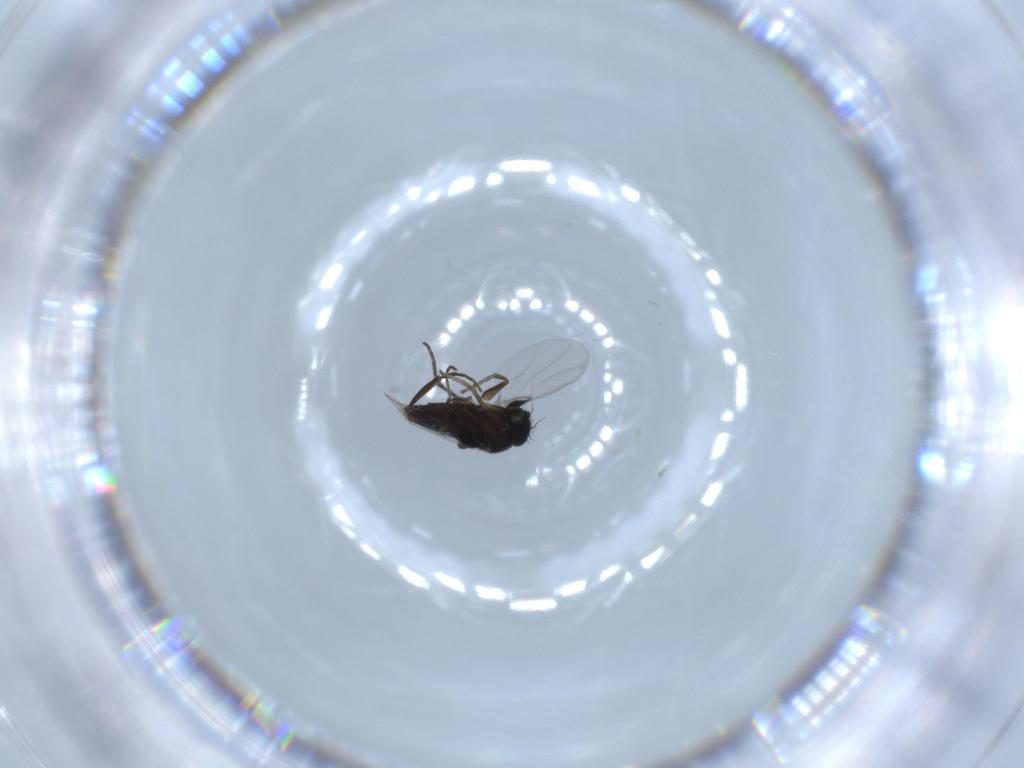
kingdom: Animalia
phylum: Arthropoda
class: Insecta
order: Diptera
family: Phoridae
